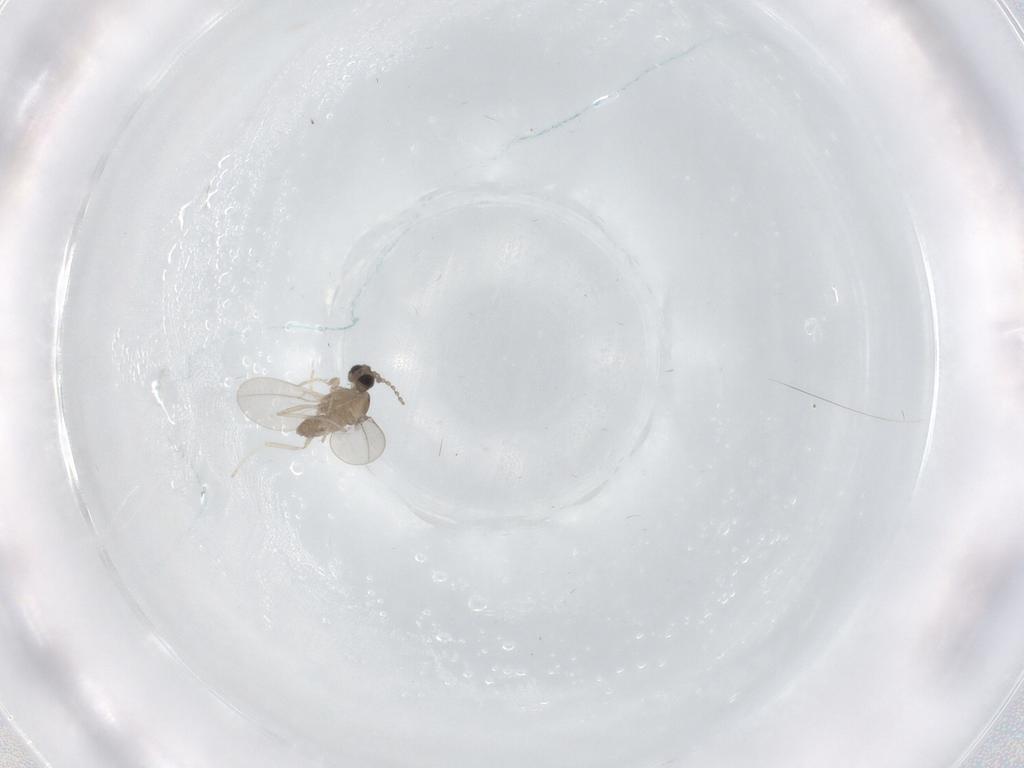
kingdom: Animalia
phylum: Arthropoda
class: Insecta
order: Diptera
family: Cecidomyiidae
